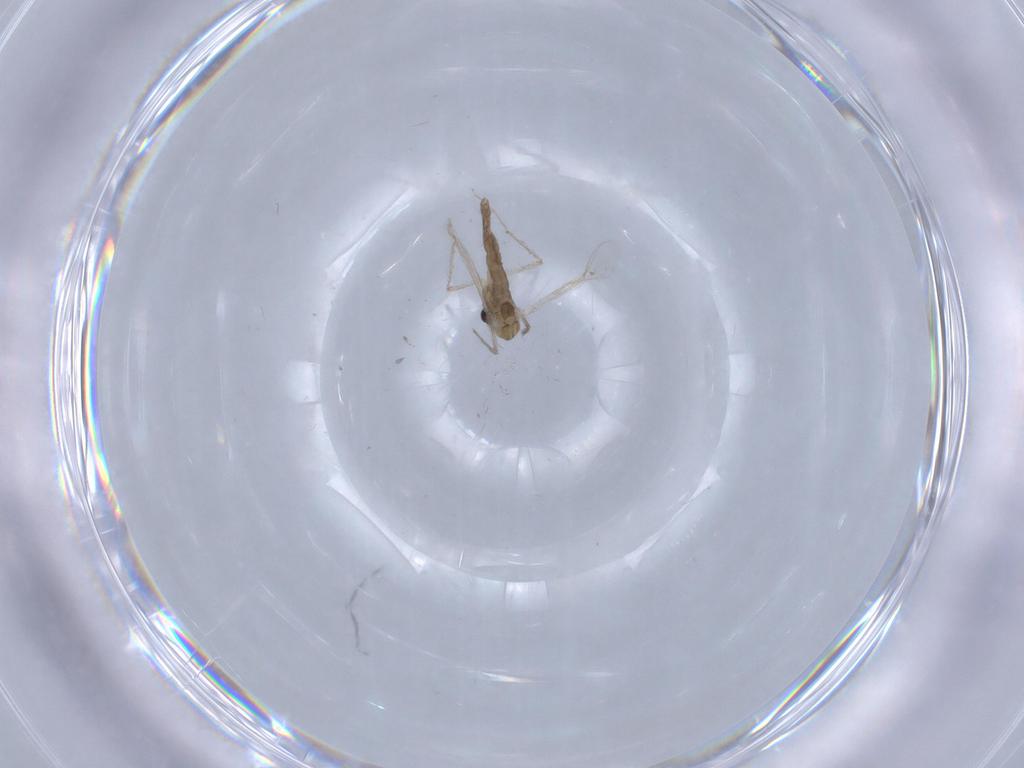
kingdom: Animalia
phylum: Arthropoda
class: Insecta
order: Diptera
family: Chironomidae
